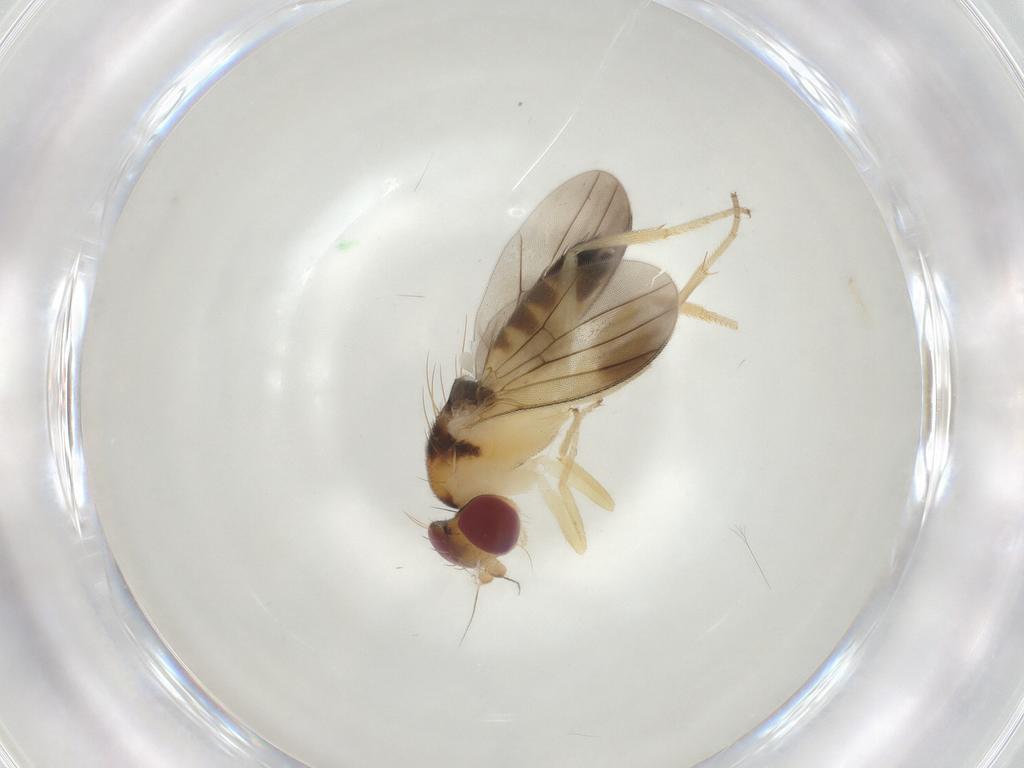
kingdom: Animalia
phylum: Arthropoda
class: Insecta
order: Diptera
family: Clusiidae
